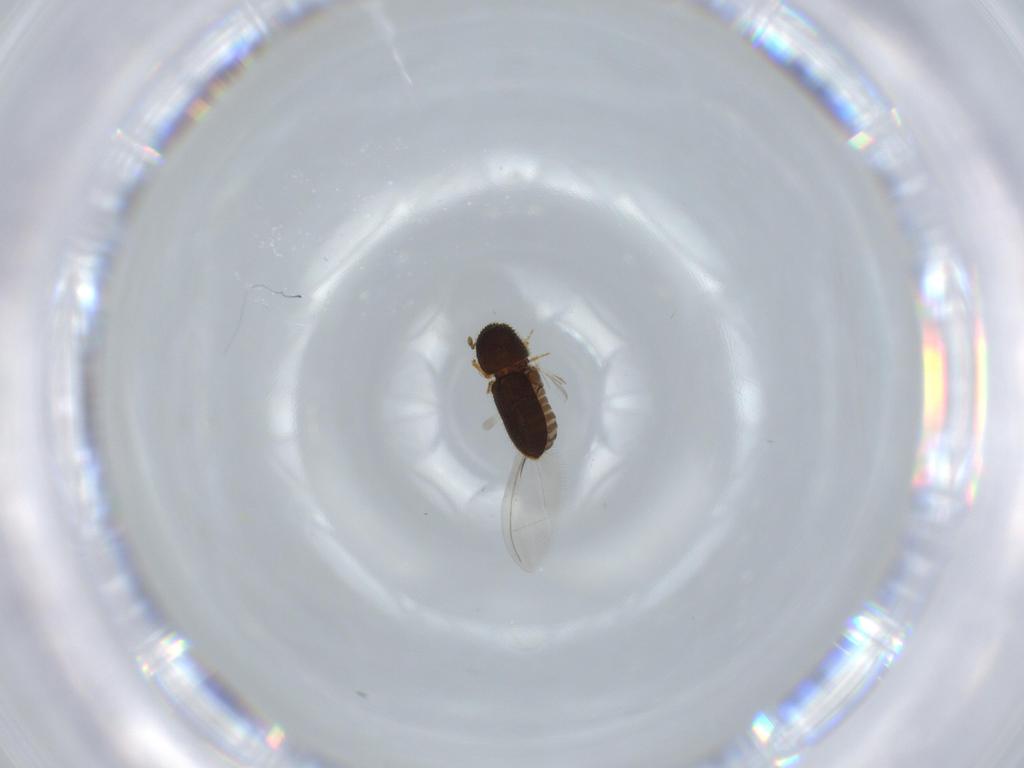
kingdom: Animalia
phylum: Arthropoda
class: Insecta
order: Coleoptera
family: Curculionidae
